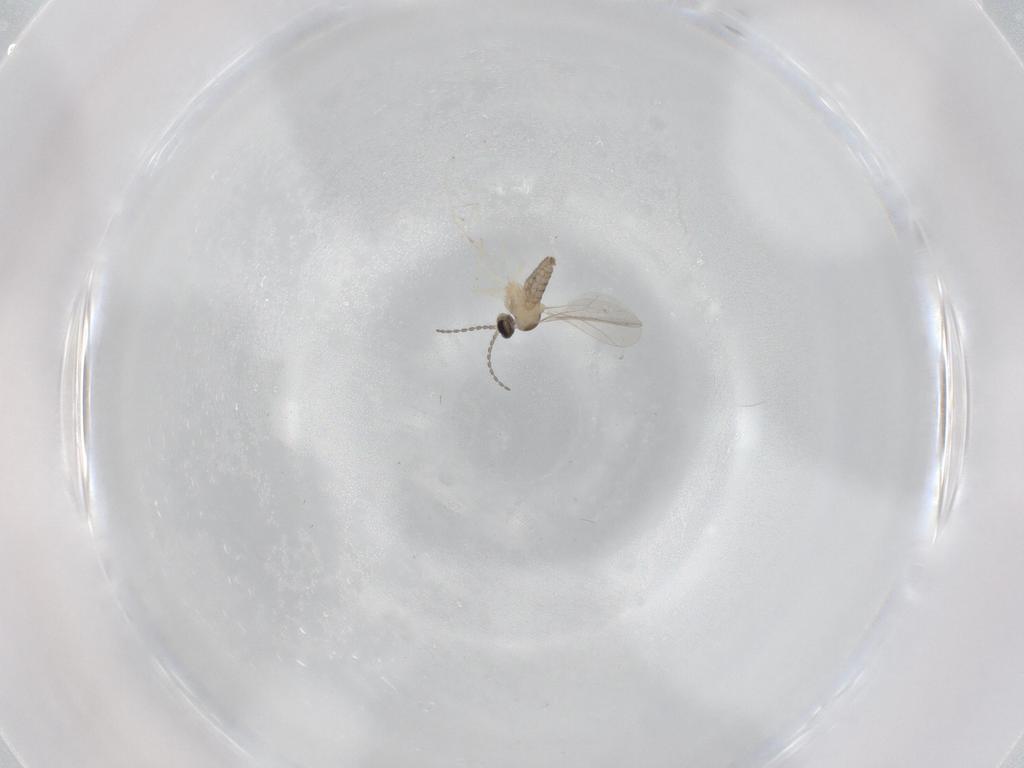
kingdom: Animalia
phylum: Arthropoda
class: Insecta
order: Diptera
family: Cecidomyiidae
